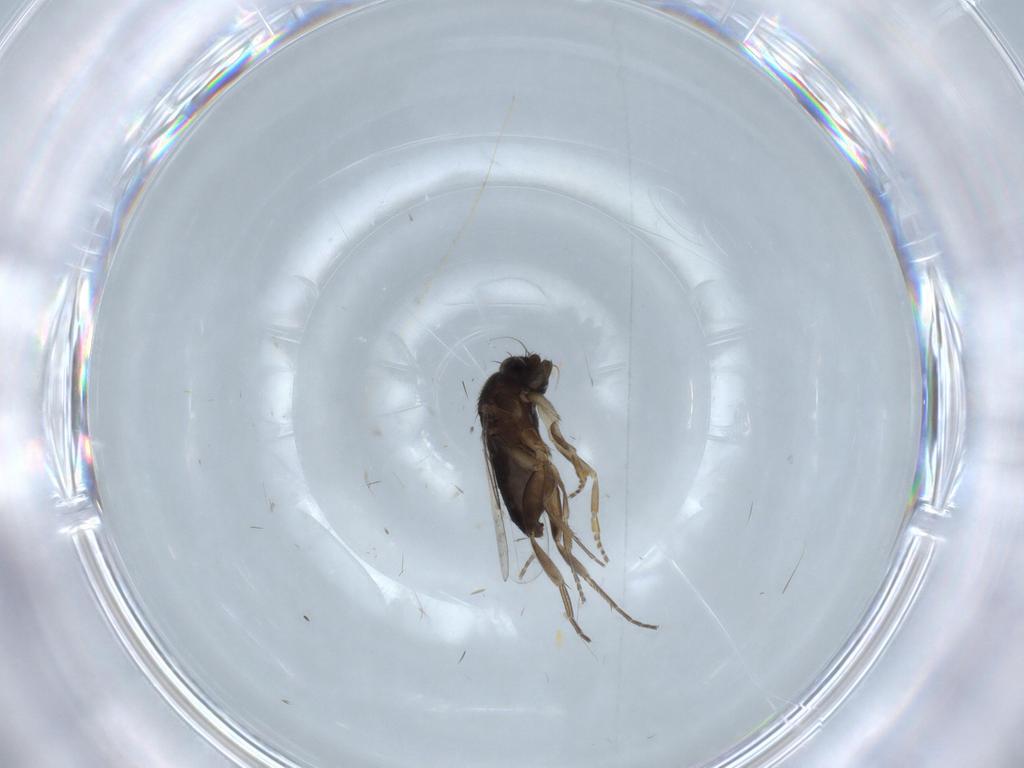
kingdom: Animalia
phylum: Arthropoda
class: Insecta
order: Diptera
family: Phoridae
